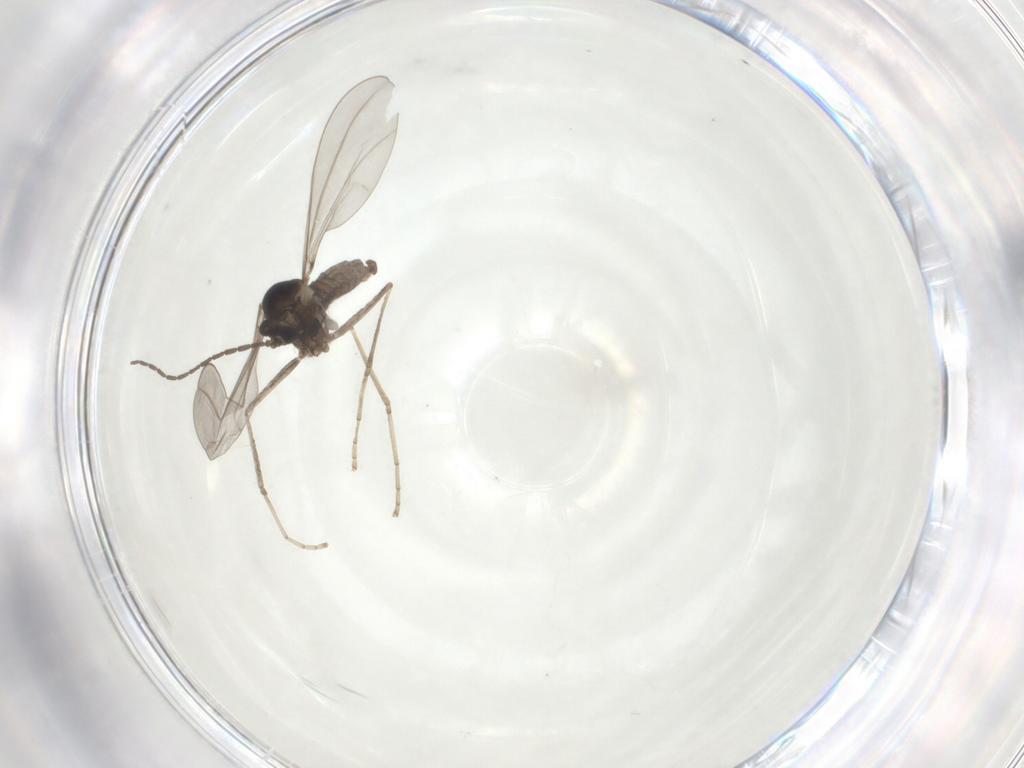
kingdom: Animalia
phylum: Arthropoda
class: Insecta
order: Diptera
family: Cecidomyiidae
